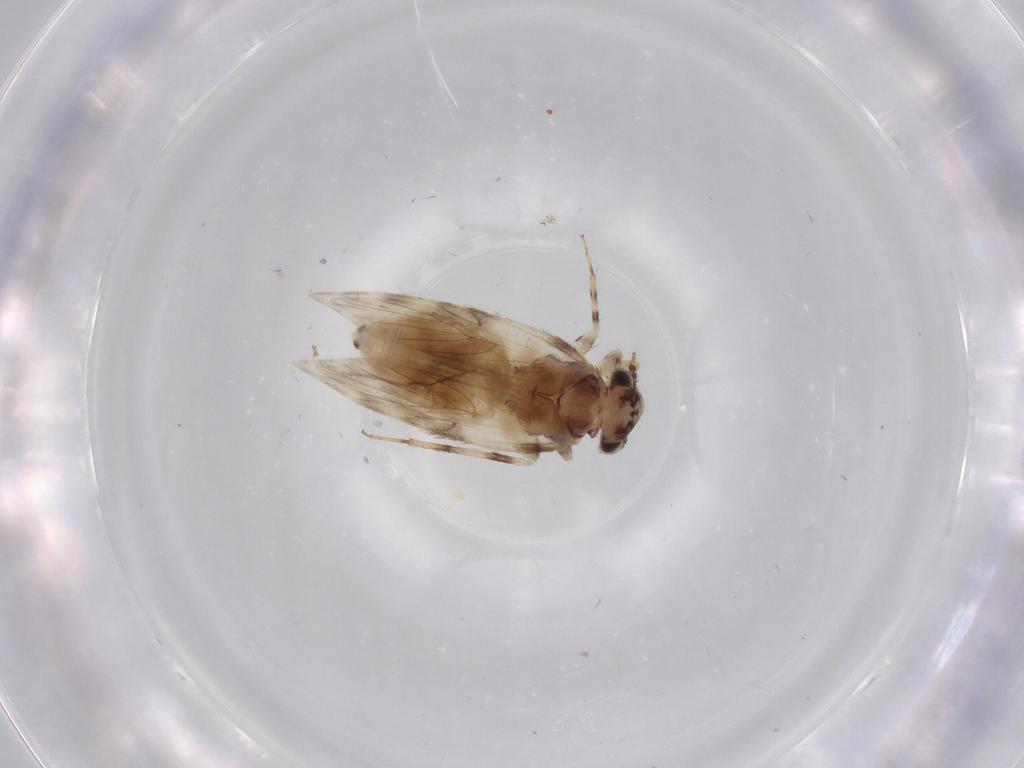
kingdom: Animalia
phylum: Arthropoda
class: Insecta
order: Psocodea
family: Lepidopsocidae
